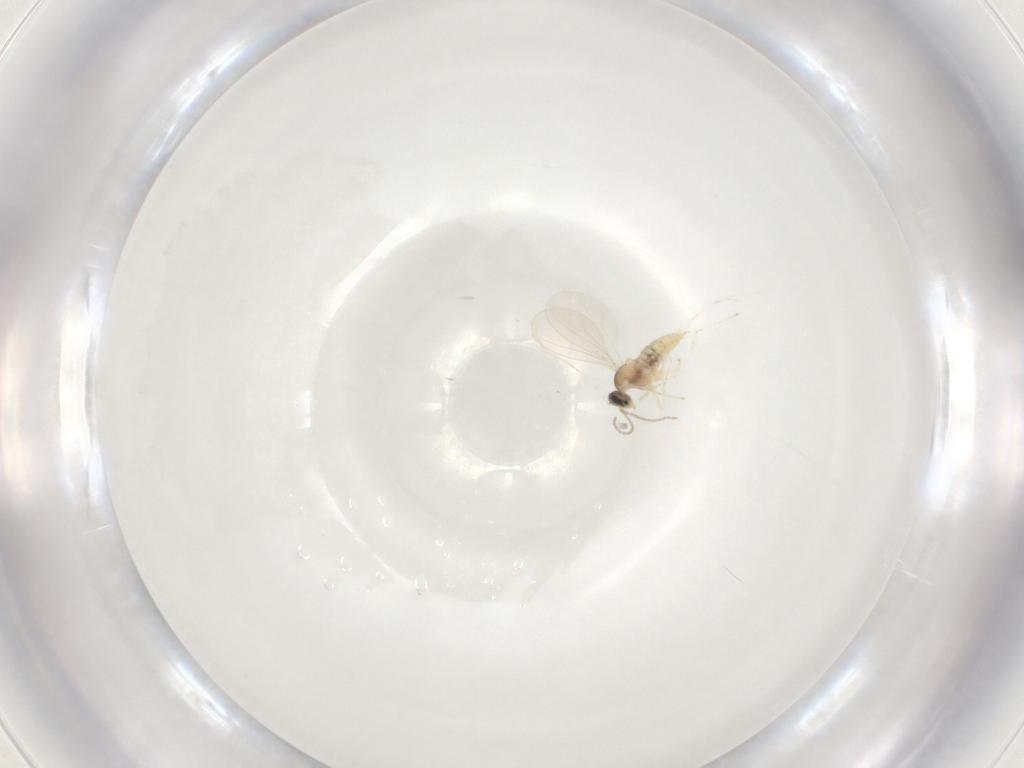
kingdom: Animalia
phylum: Arthropoda
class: Insecta
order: Diptera
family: Cecidomyiidae
